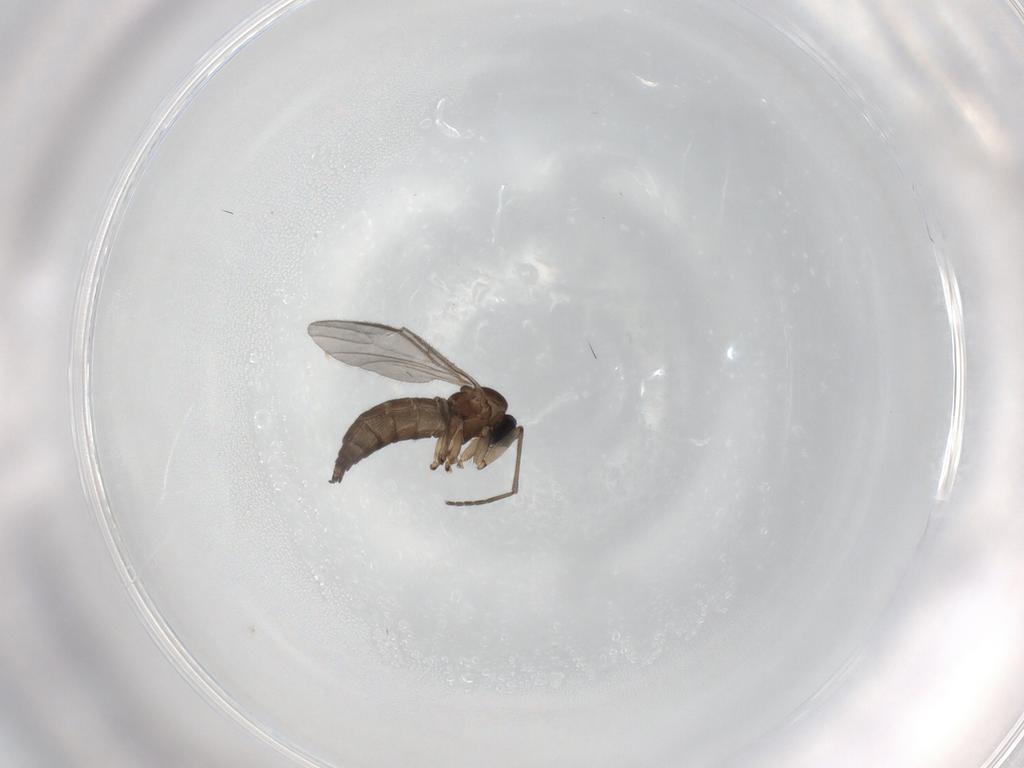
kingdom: Animalia
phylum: Arthropoda
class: Insecta
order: Diptera
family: Sciaridae
